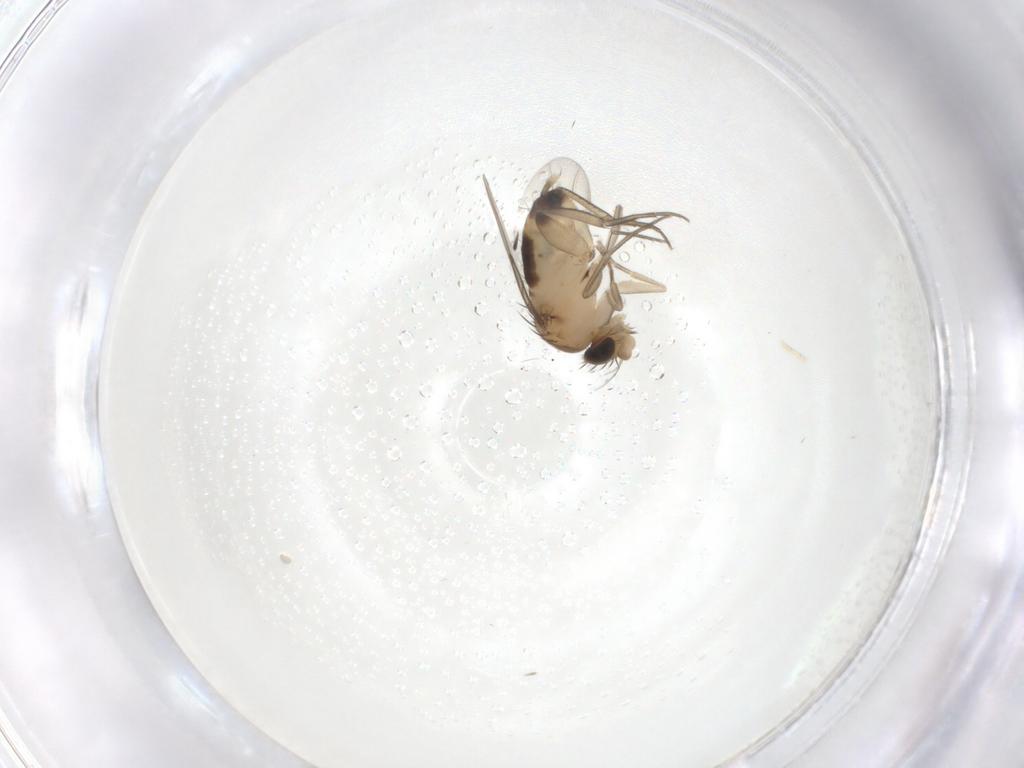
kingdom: Animalia
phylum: Arthropoda
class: Insecta
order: Diptera
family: Phoridae
